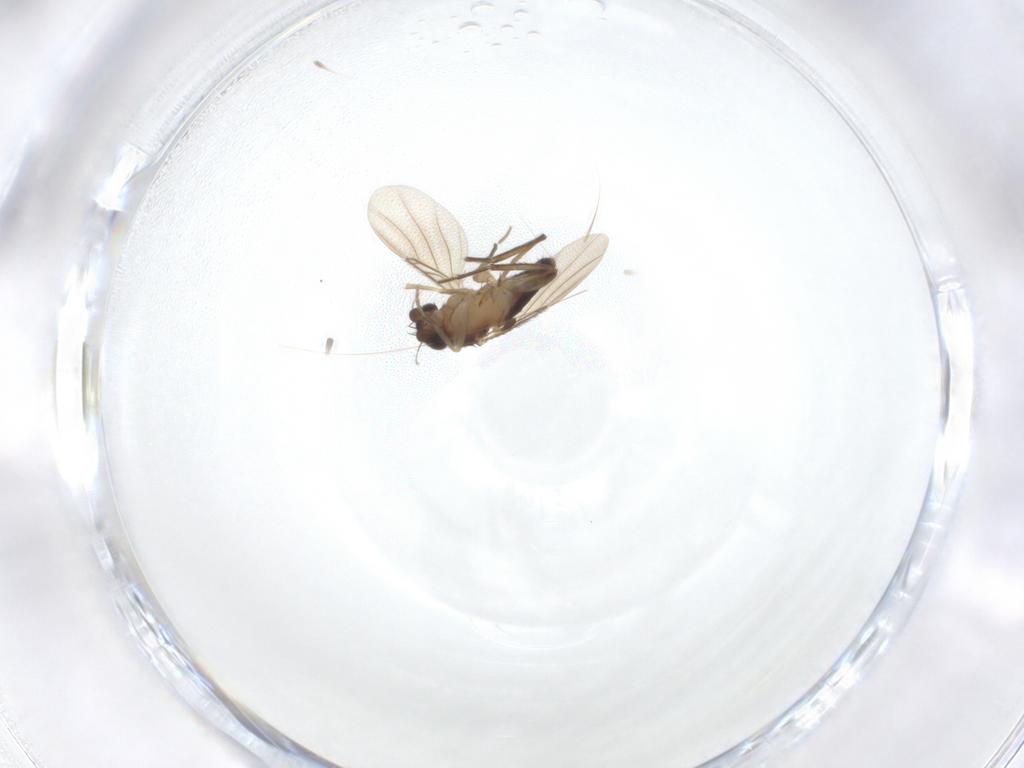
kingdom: Animalia
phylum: Arthropoda
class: Insecta
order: Diptera
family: Phoridae
